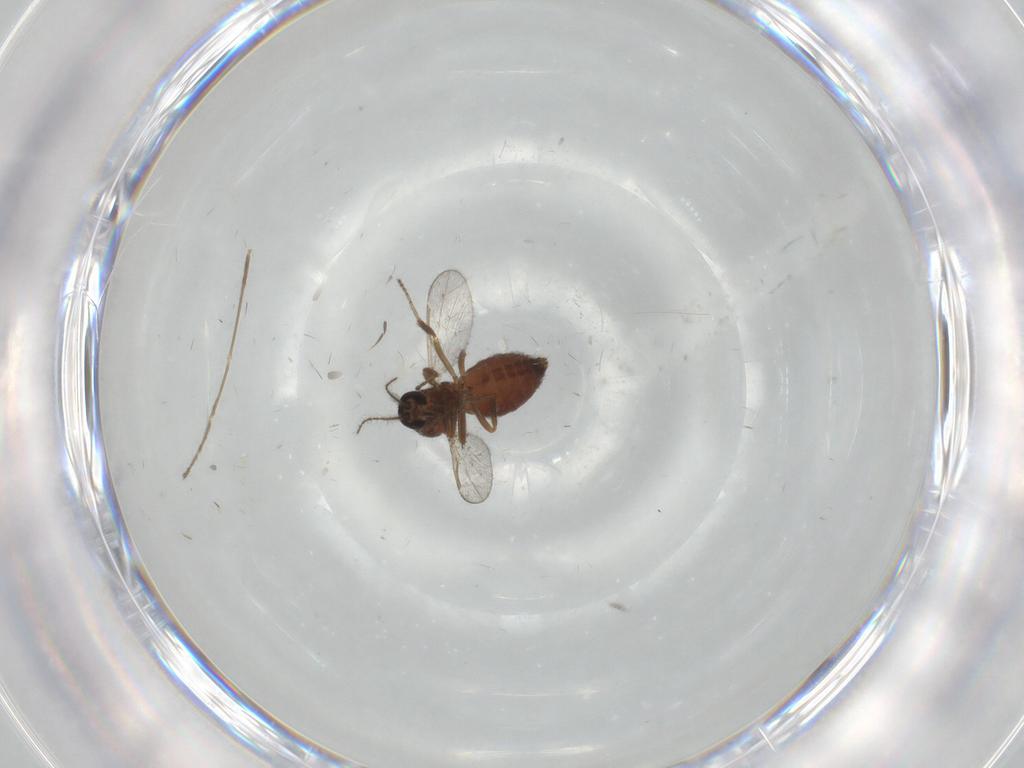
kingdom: Animalia
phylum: Arthropoda
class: Insecta
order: Diptera
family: Ceratopogonidae
